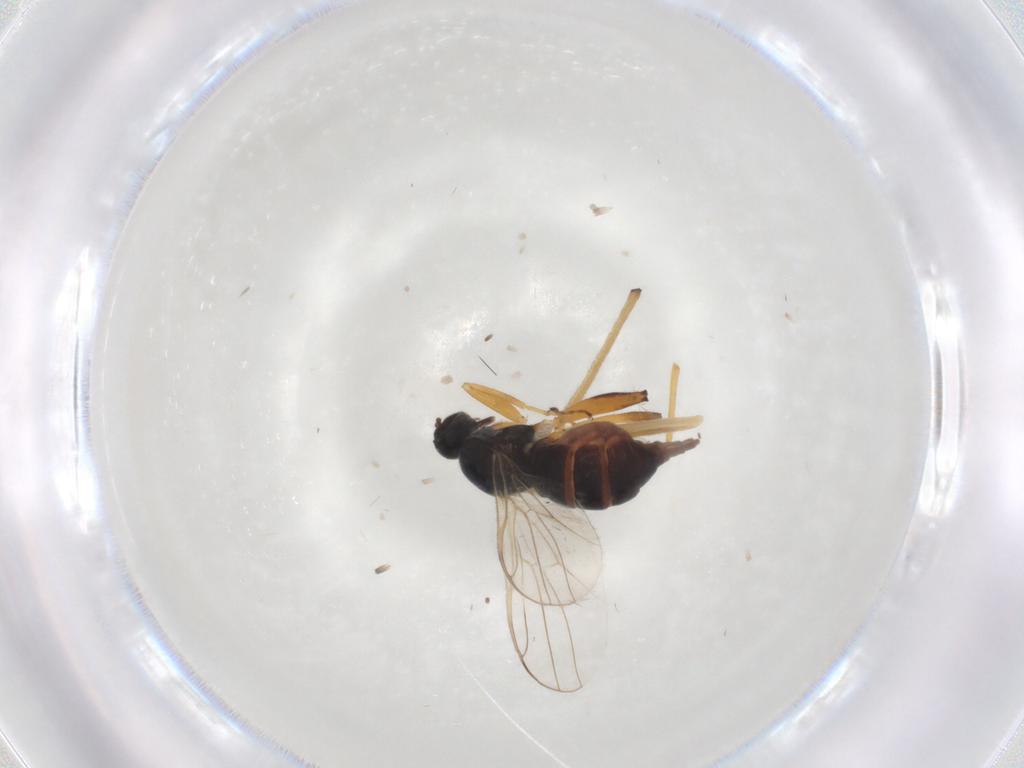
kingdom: Animalia
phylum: Arthropoda
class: Insecta
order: Diptera
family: Hybotidae
